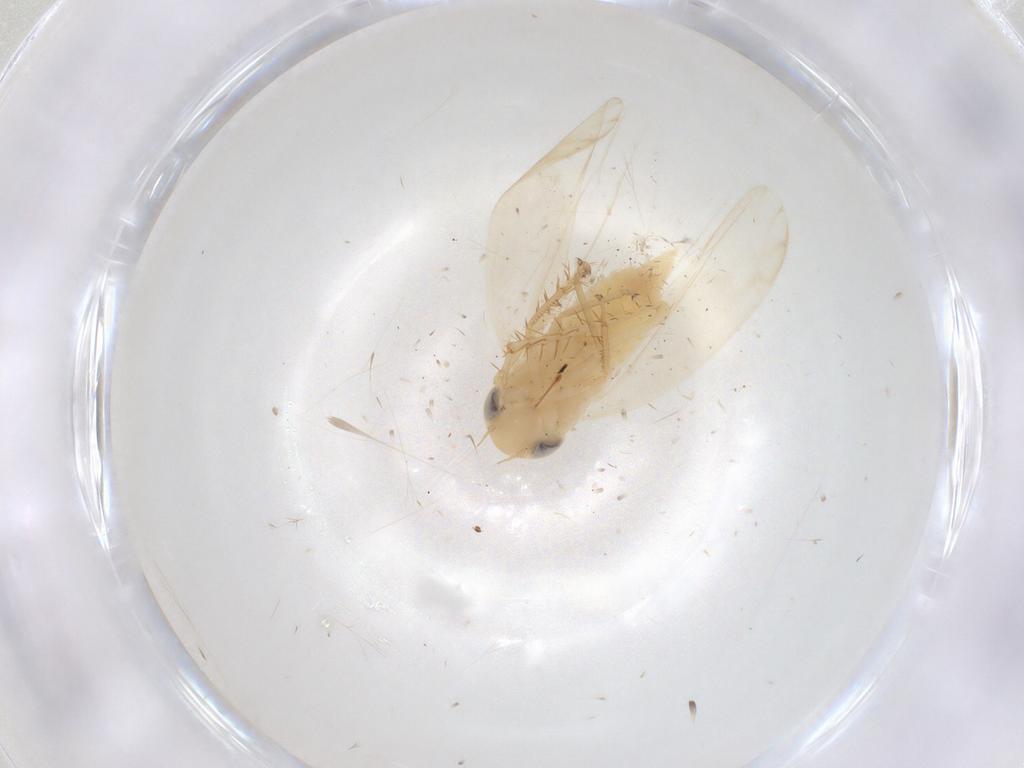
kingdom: Animalia
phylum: Arthropoda
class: Insecta
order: Hemiptera
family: Cicadellidae
